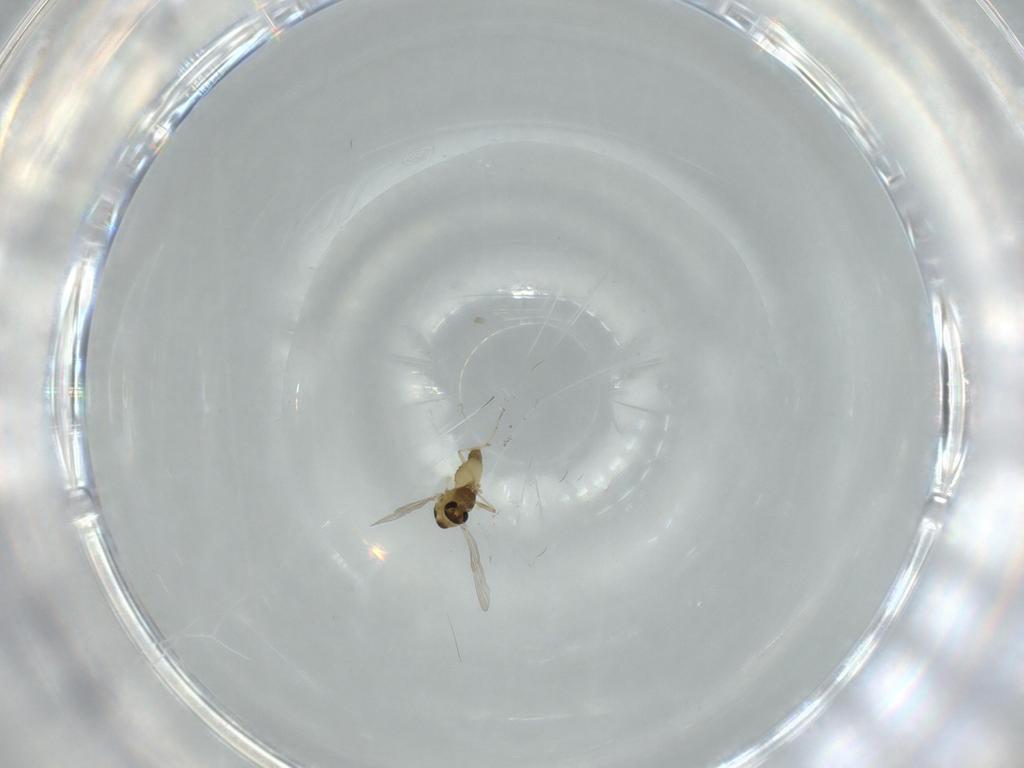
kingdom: Animalia
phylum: Arthropoda
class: Insecta
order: Diptera
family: Chironomidae
